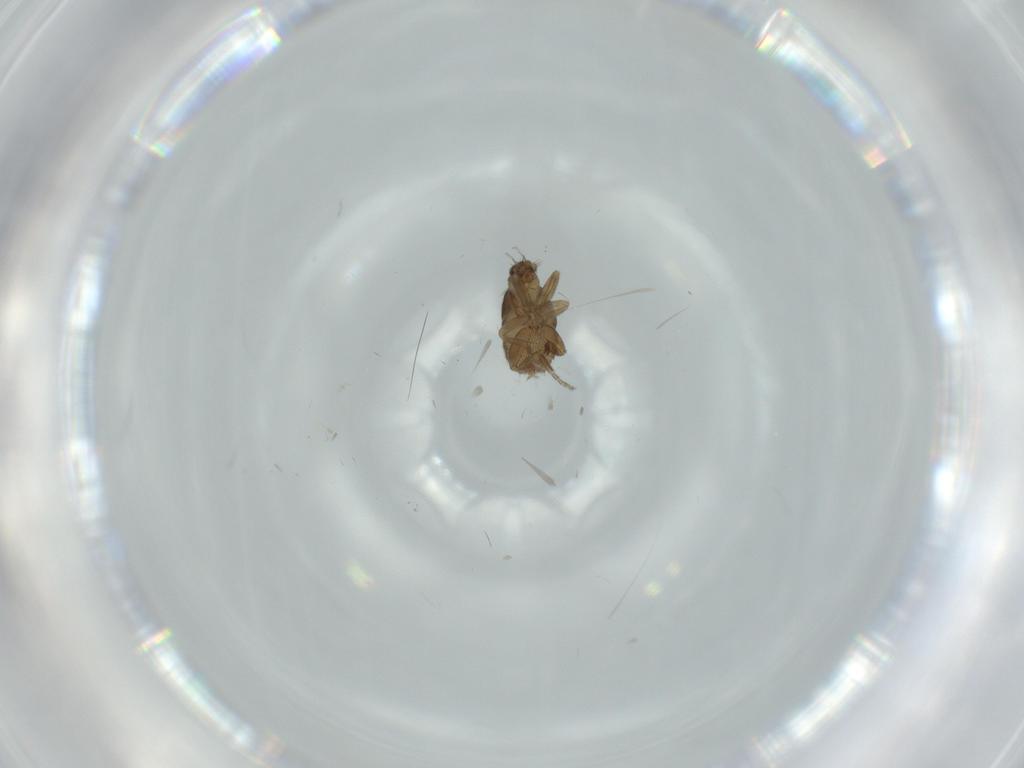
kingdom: Animalia
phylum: Arthropoda
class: Insecta
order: Diptera
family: Phoridae
